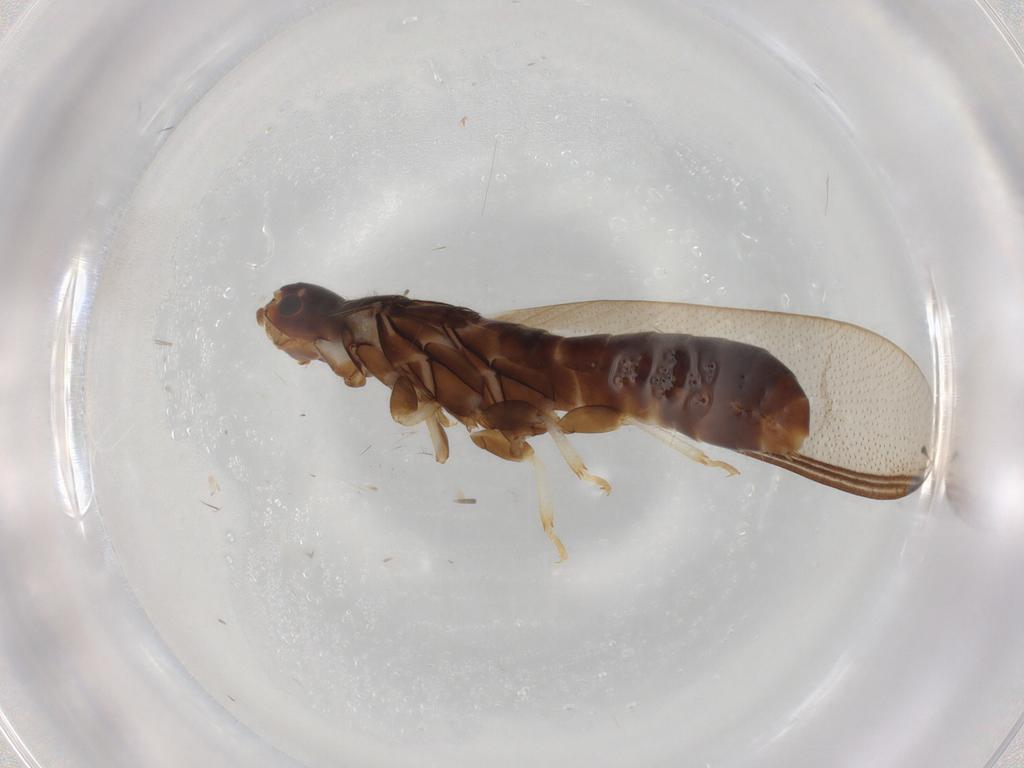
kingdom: Animalia
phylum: Arthropoda
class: Insecta
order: Blattodea
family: Kalotermitidae
